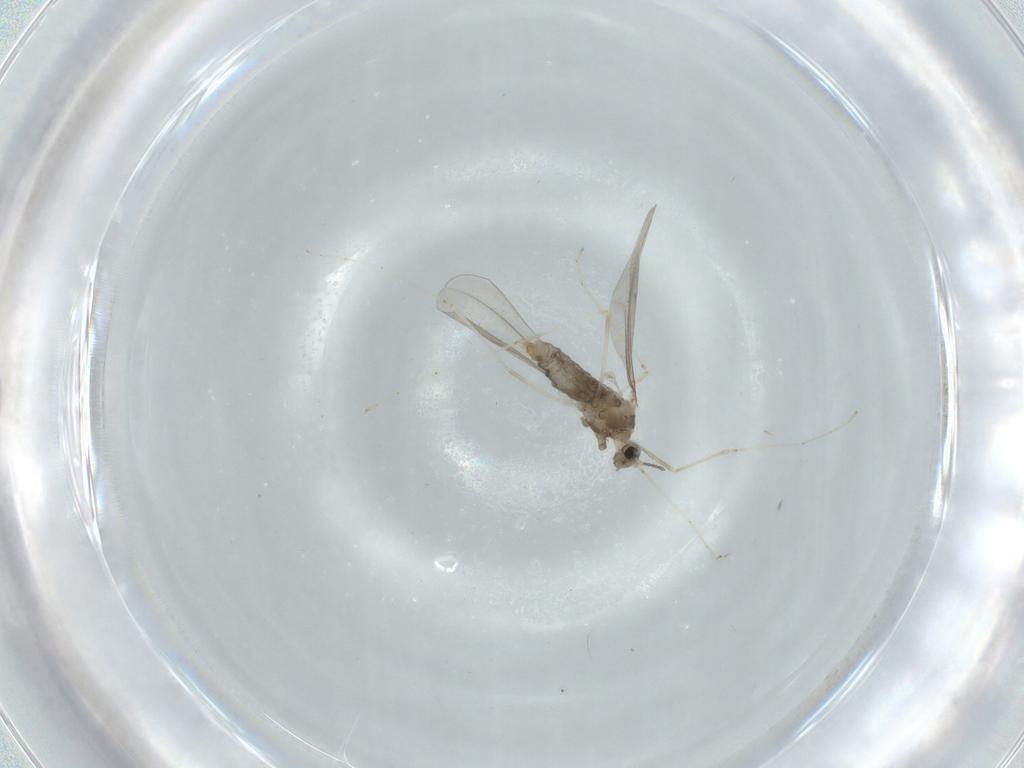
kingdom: Animalia
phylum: Arthropoda
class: Insecta
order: Diptera
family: Cecidomyiidae
